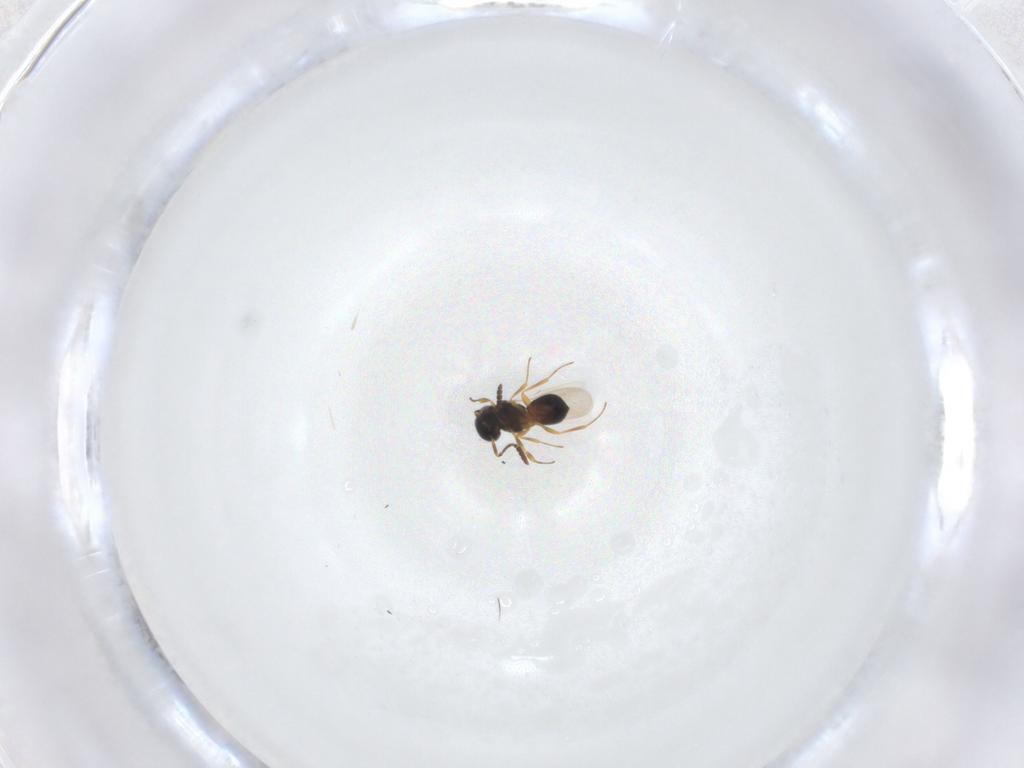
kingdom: Animalia
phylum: Arthropoda
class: Insecta
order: Hymenoptera
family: Scelionidae
